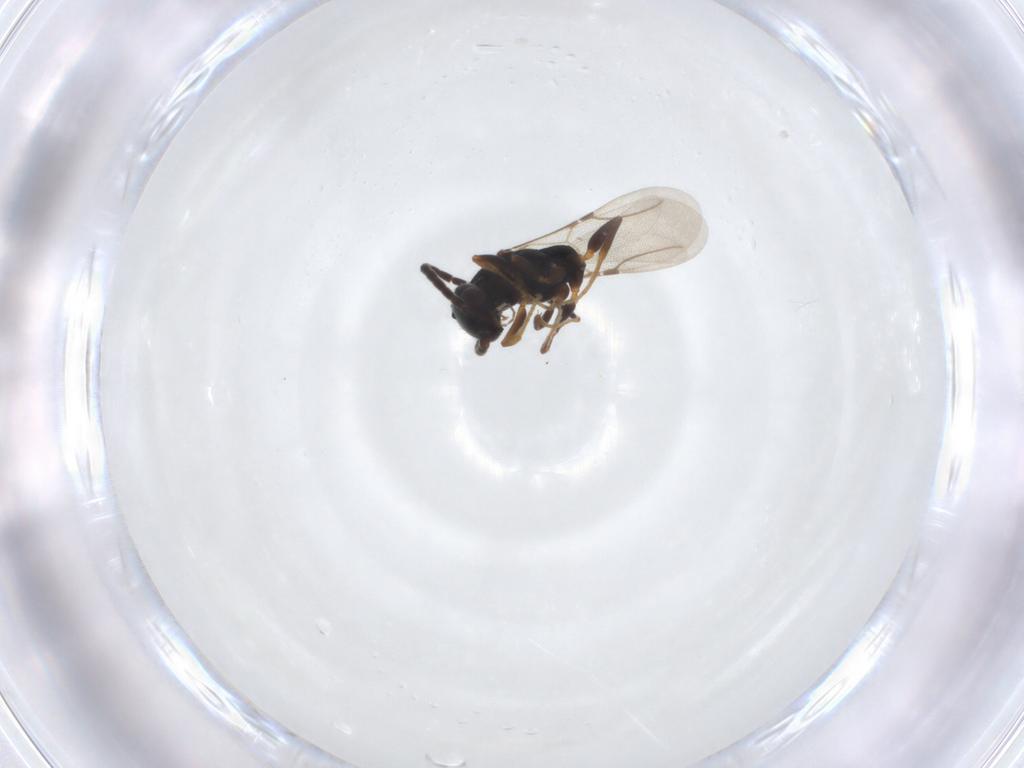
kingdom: Animalia
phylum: Arthropoda
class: Insecta
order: Hymenoptera
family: Bethylidae
